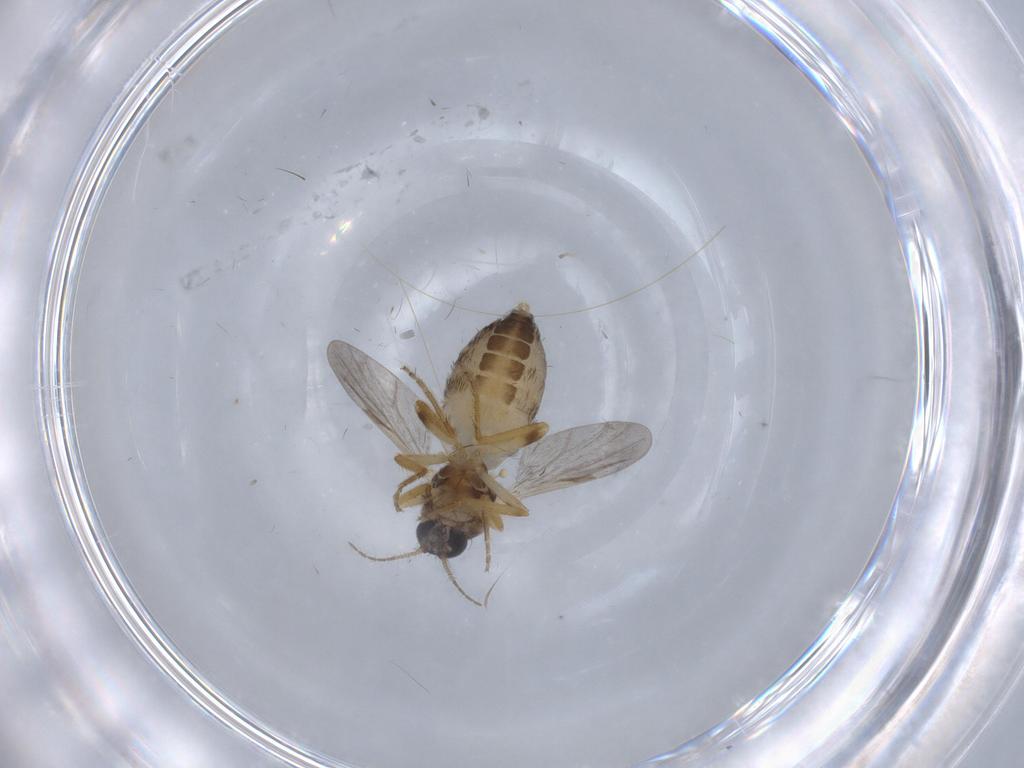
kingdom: Animalia
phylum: Arthropoda
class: Insecta
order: Diptera
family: Ceratopogonidae
